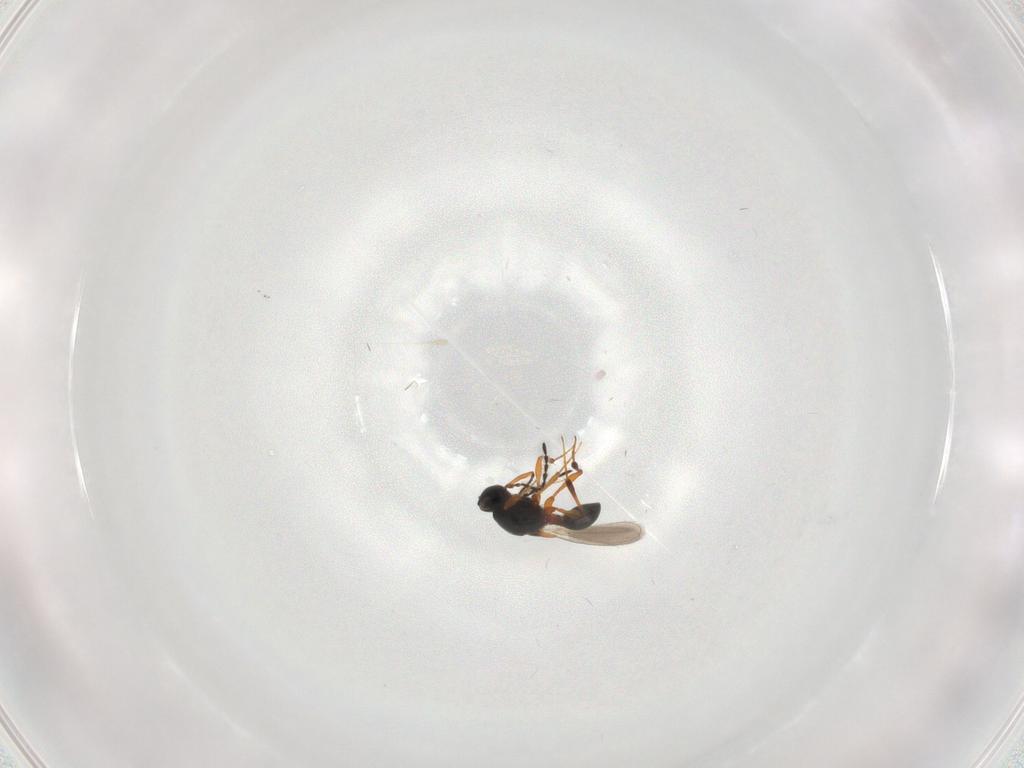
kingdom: Animalia
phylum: Arthropoda
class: Insecta
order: Hymenoptera
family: Platygastridae
